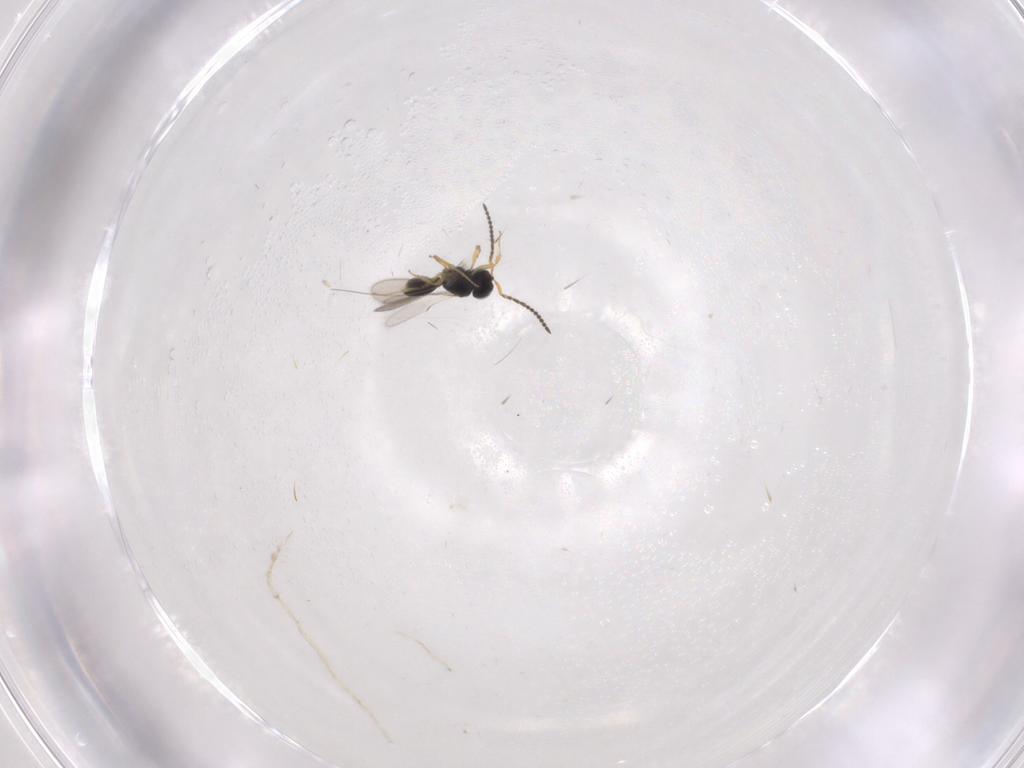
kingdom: Animalia
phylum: Arthropoda
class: Insecta
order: Hymenoptera
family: Scelionidae
